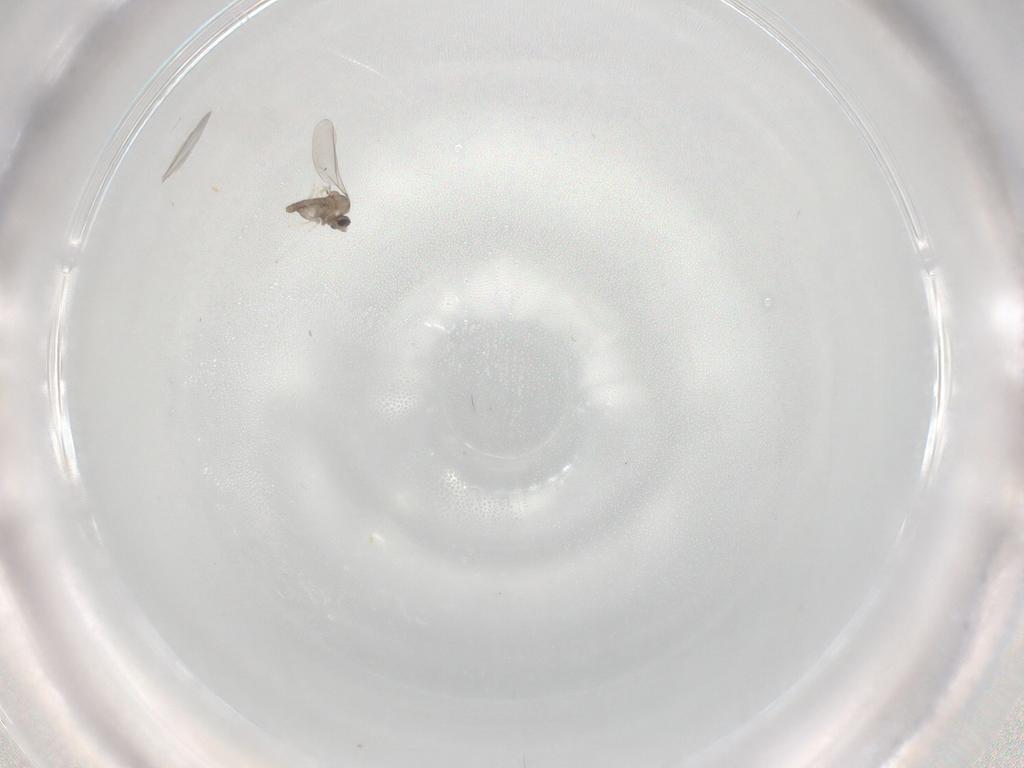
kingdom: Animalia
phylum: Arthropoda
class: Insecta
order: Diptera
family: Cecidomyiidae
